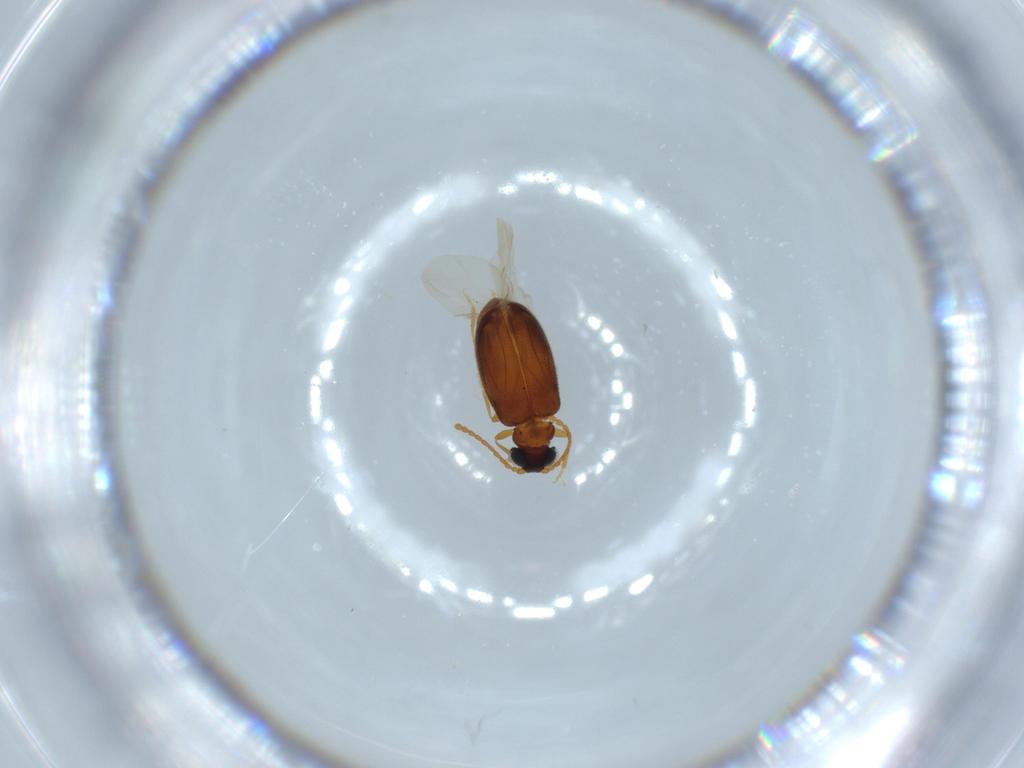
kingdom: Animalia
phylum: Arthropoda
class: Insecta
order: Coleoptera
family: Aderidae
